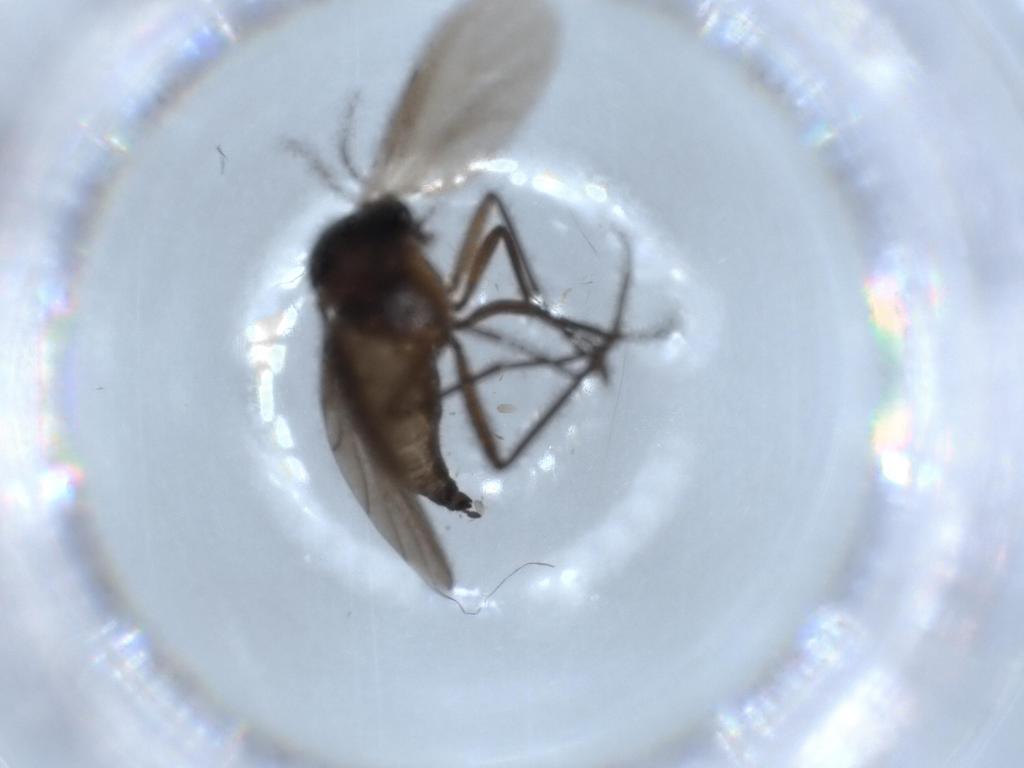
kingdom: Animalia
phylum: Arthropoda
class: Insecta
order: Diptera
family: Sciaridae
